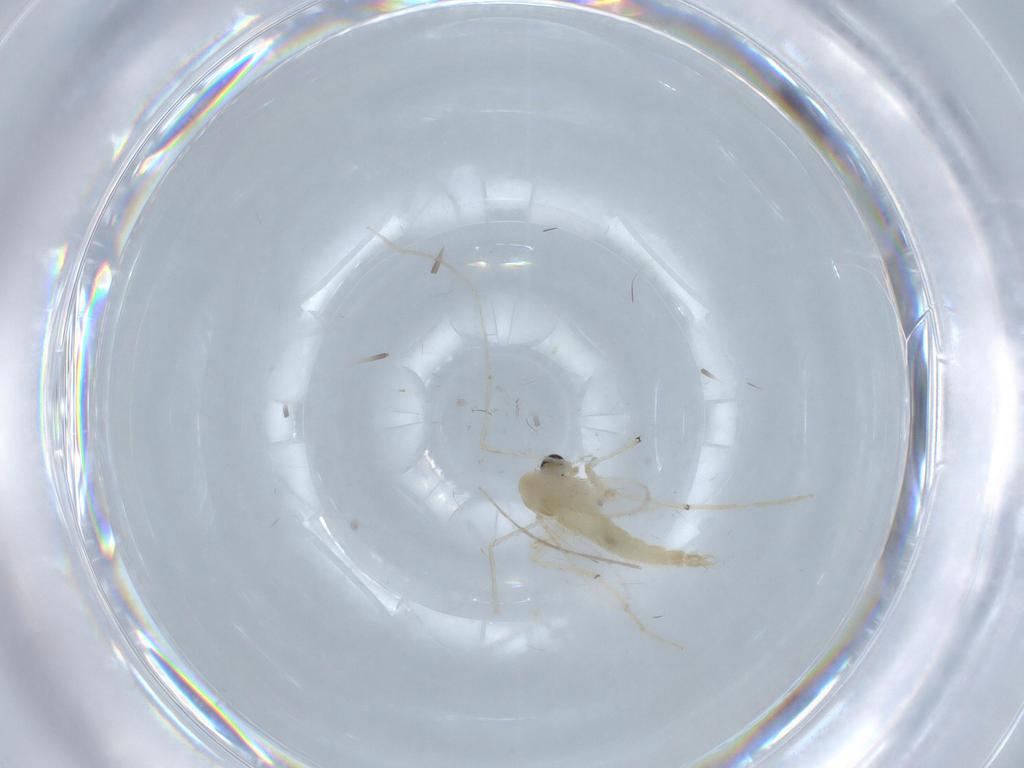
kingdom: Animalia
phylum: Arthropoda
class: Insecta
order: Diptera
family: Chironomidae
